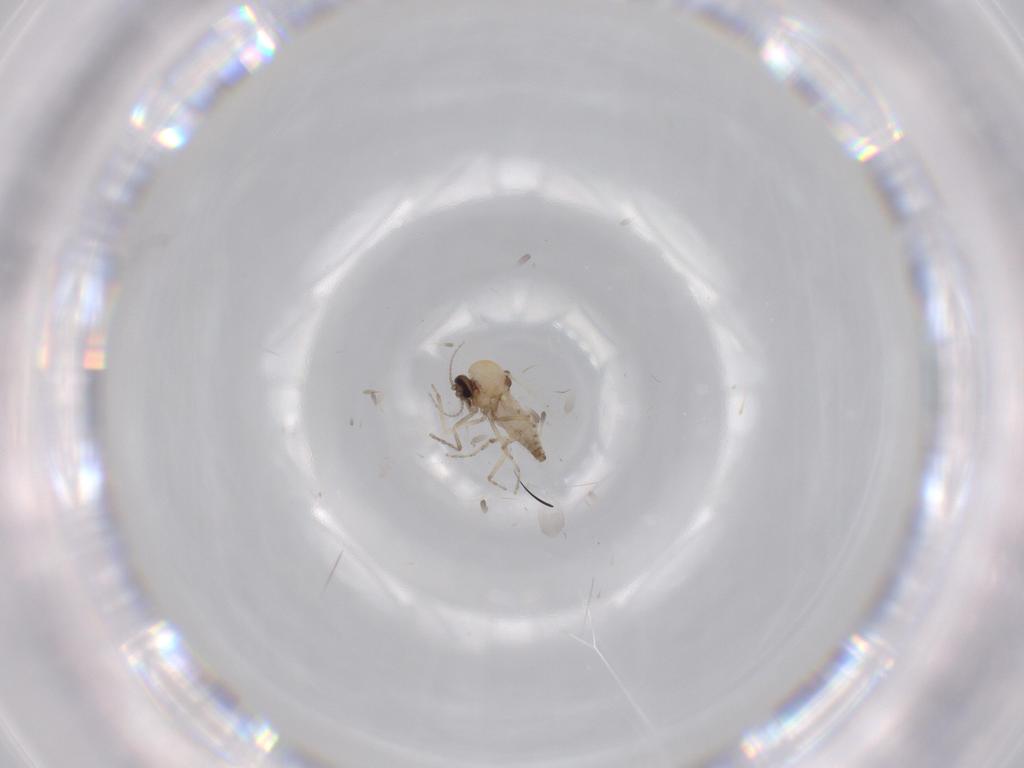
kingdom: Animalia
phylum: Arthropoda
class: Insecta
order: Diptera
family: Ceratopogonidae
